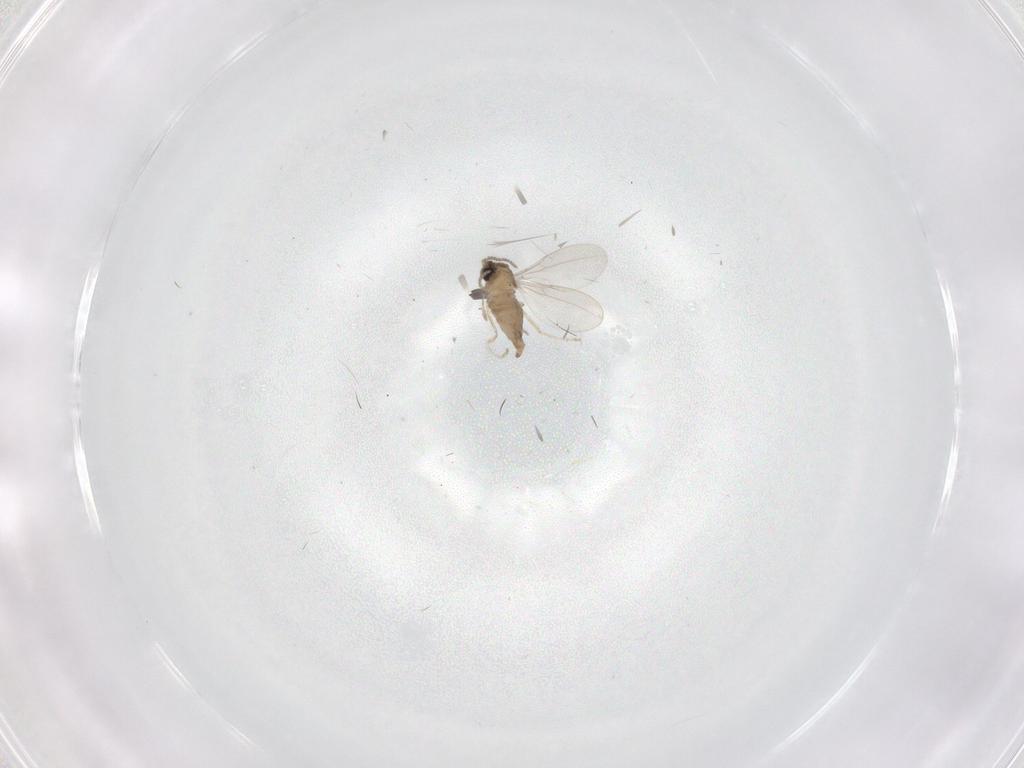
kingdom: Animalia
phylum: Arthropoda
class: Insecta
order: Diptera
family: Cecidomyiidae
